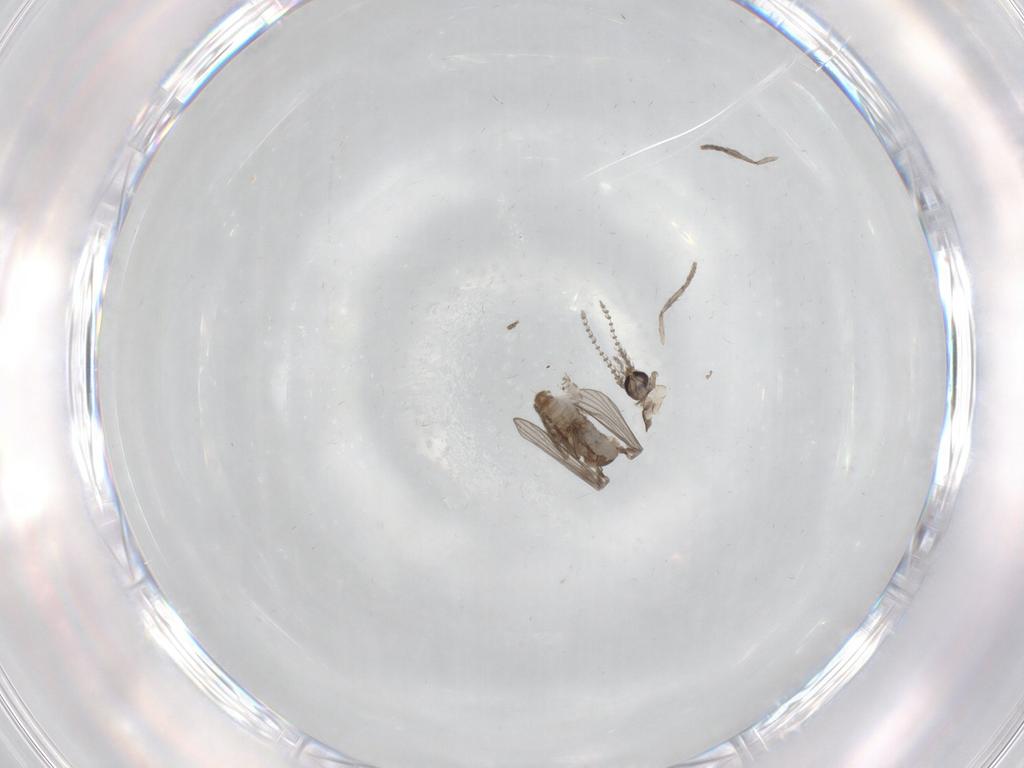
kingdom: Animalia
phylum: Arthropoda
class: Insecta
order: Diptera
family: Psychodidae
